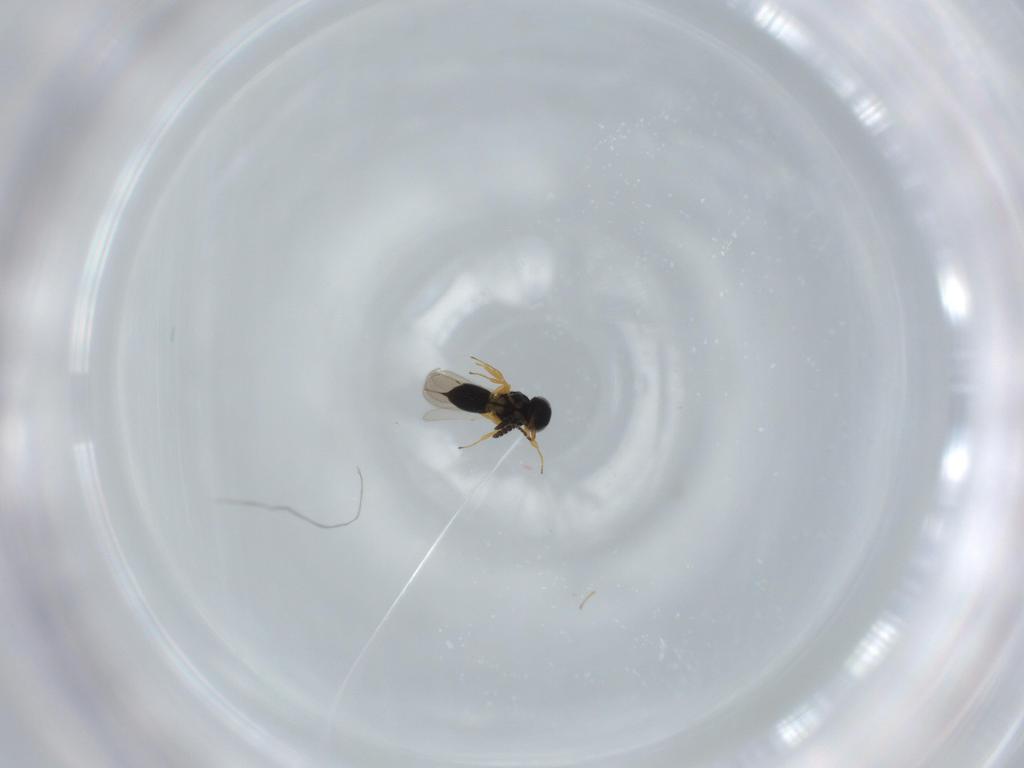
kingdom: Animalia
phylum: Arthropoda
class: Insecta
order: Hymenoptera
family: Scelionidae
